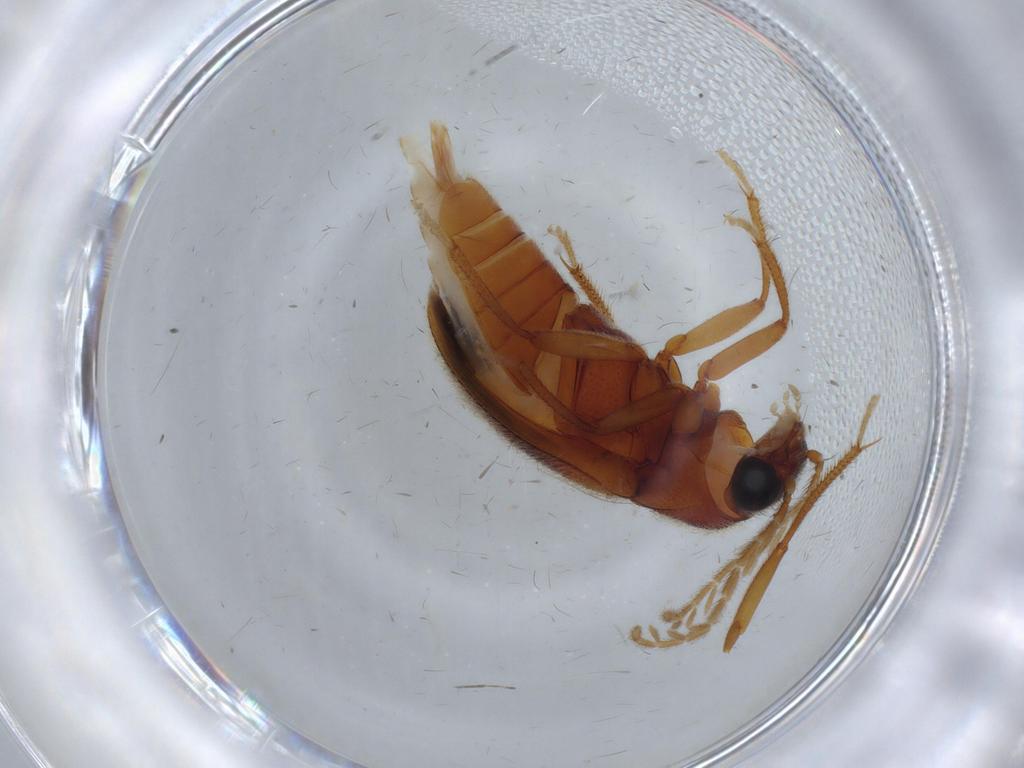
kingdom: Animalia
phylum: Arthropoda
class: Insecta
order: Coleoptera
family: Ptilodactylidae
